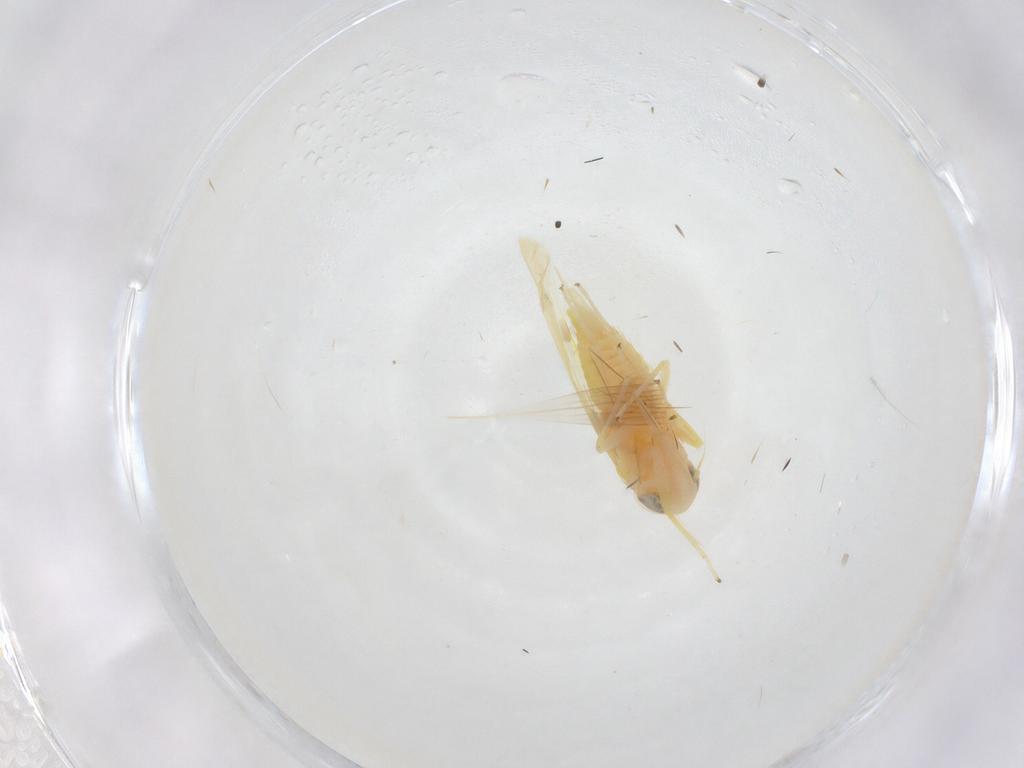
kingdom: Animalia
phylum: Arthropoda
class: Insecta
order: Hemiptera
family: Cicadellidae
